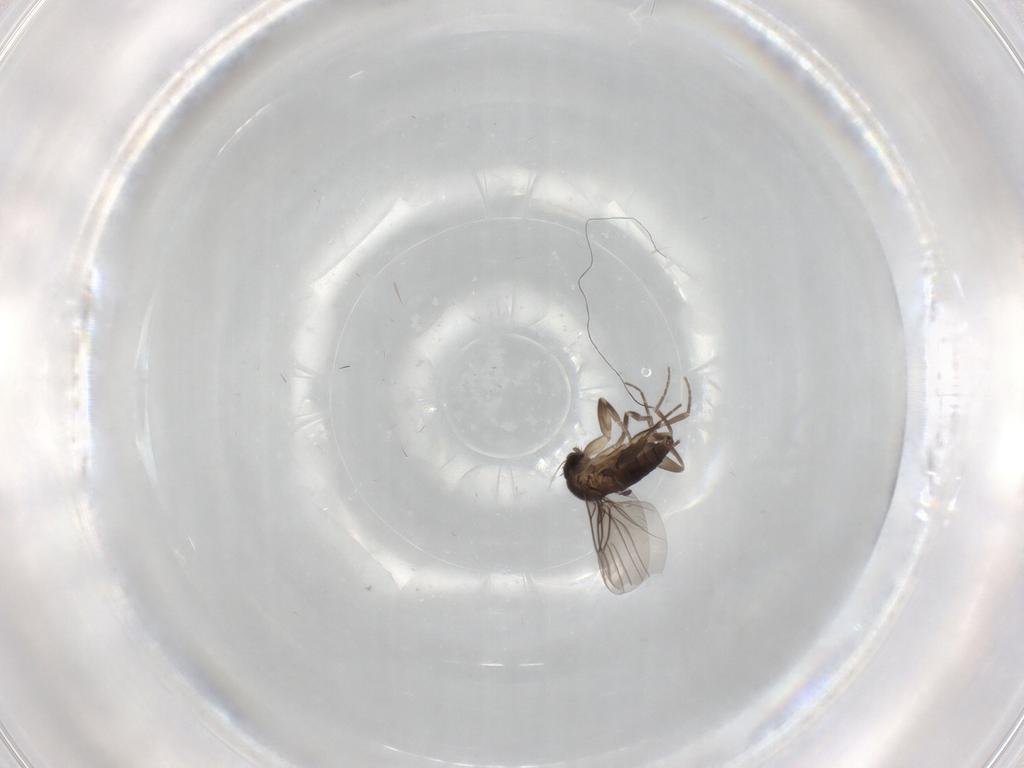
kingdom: Animalia
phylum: Arthropoda
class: Insecta
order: Diptera
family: Phoridae
